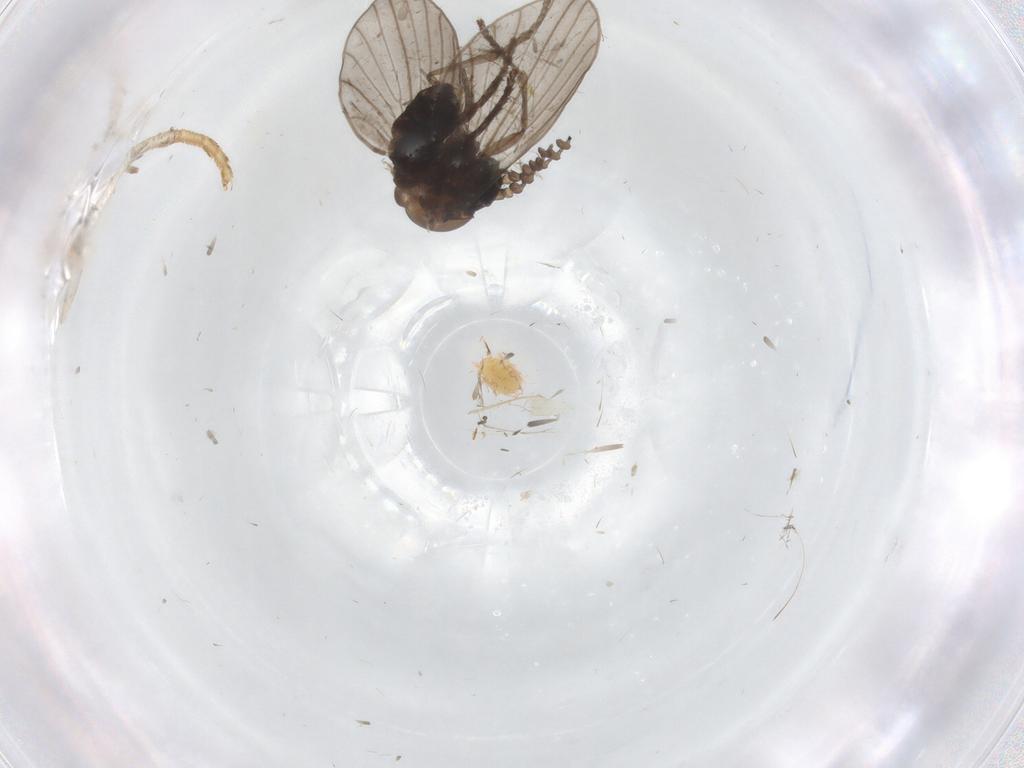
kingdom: Animalia
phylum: Arthropoda
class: Insecta
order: Diptera
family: Psychodidae
